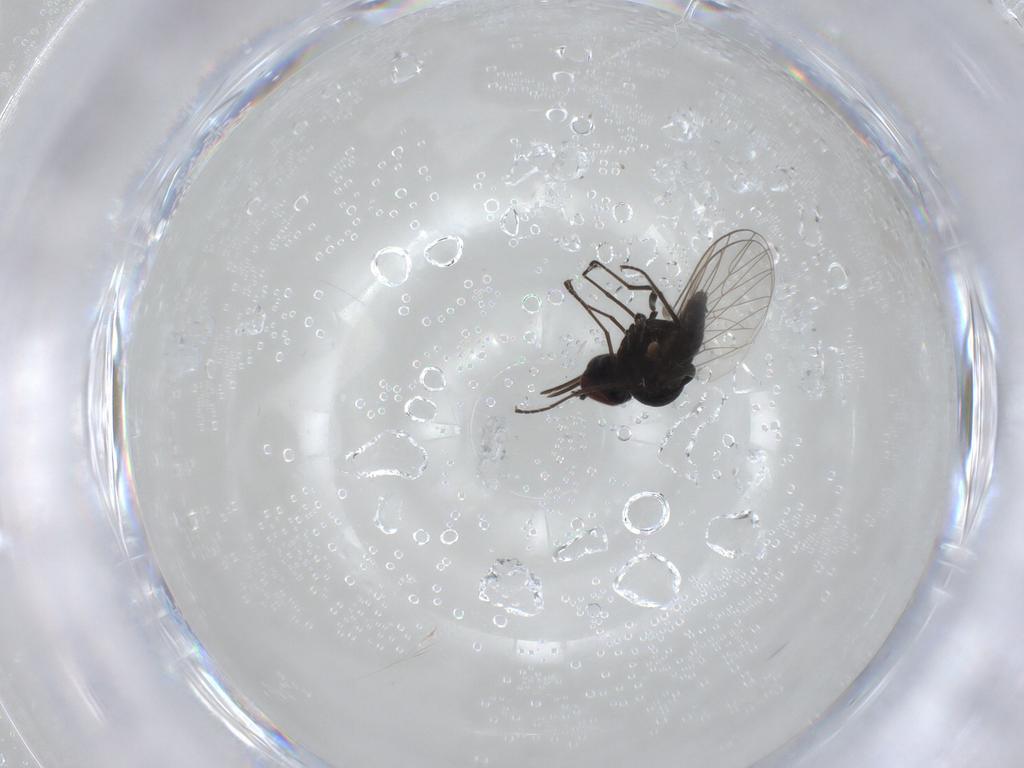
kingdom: Animalia
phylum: Arthropoda
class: Insecta
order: Diptera
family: Bombyliidae
